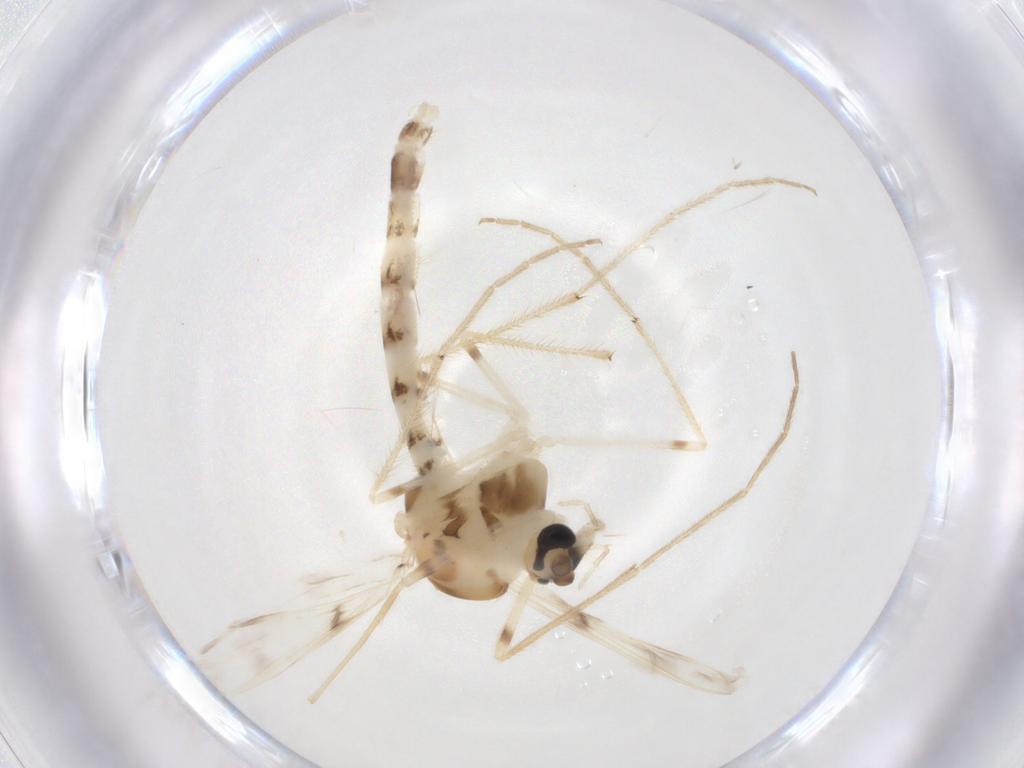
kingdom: Animalia
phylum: Arthropoda
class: Insecta
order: Diptera
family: Chironomidae
